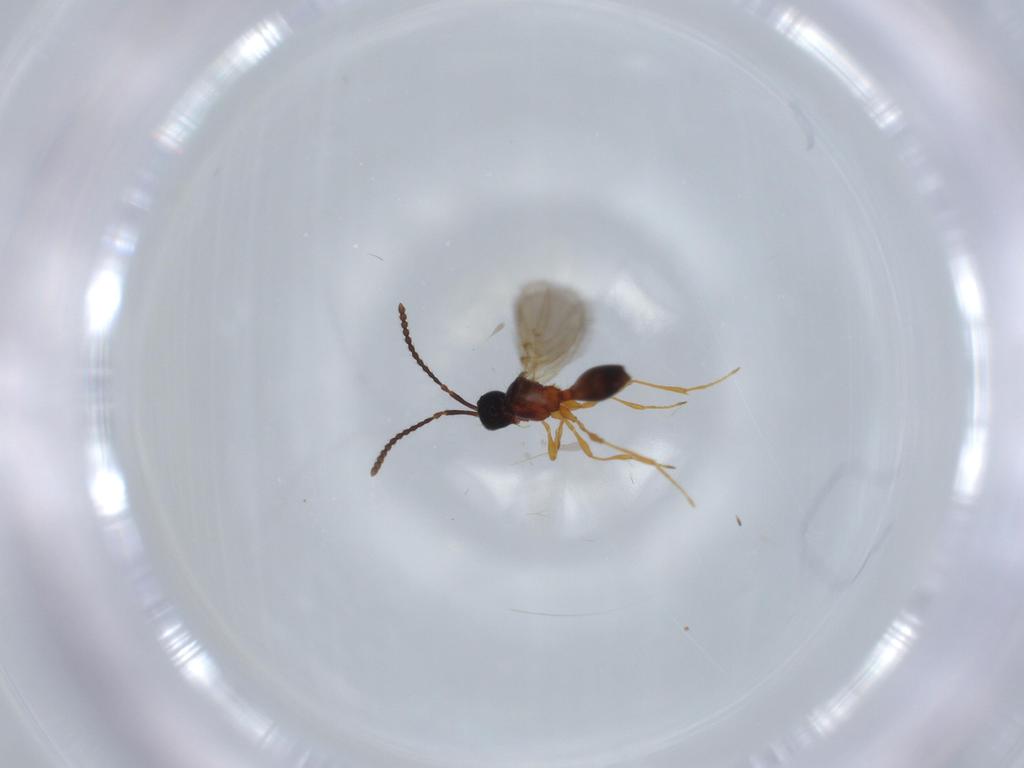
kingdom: Animalia
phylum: Arthropoda
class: Insecta
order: Hymenoptera
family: Diapriidae
